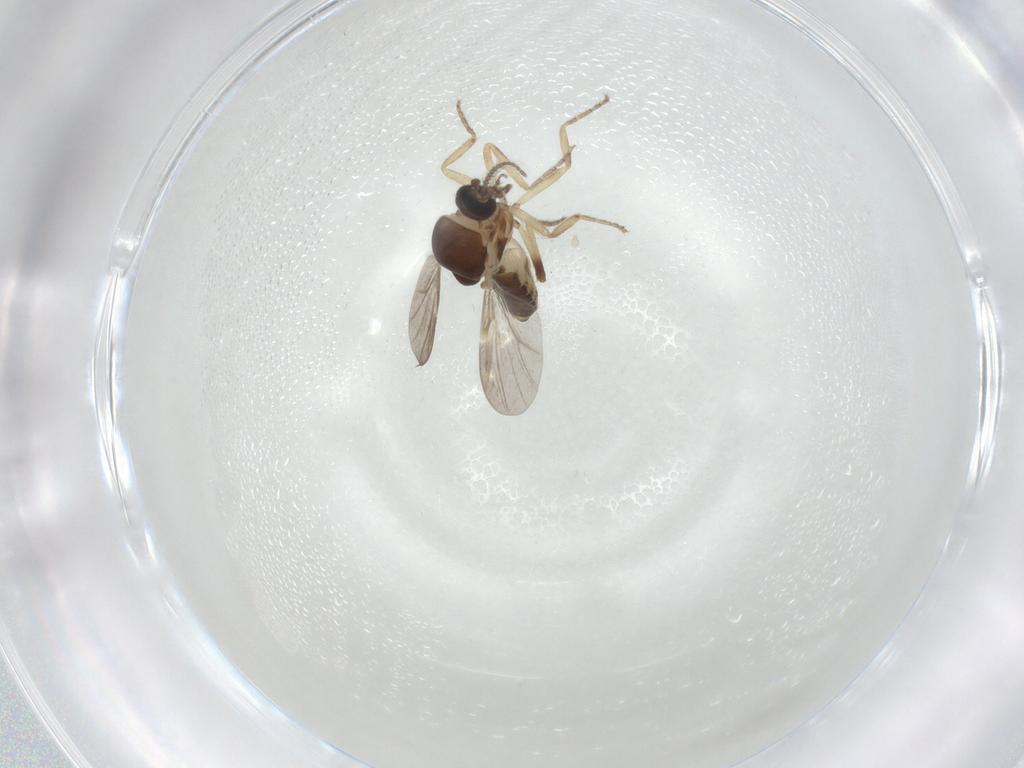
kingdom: Animalia
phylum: Arthropoda
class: Insecta
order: Diptera
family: Ceratopogonidae
